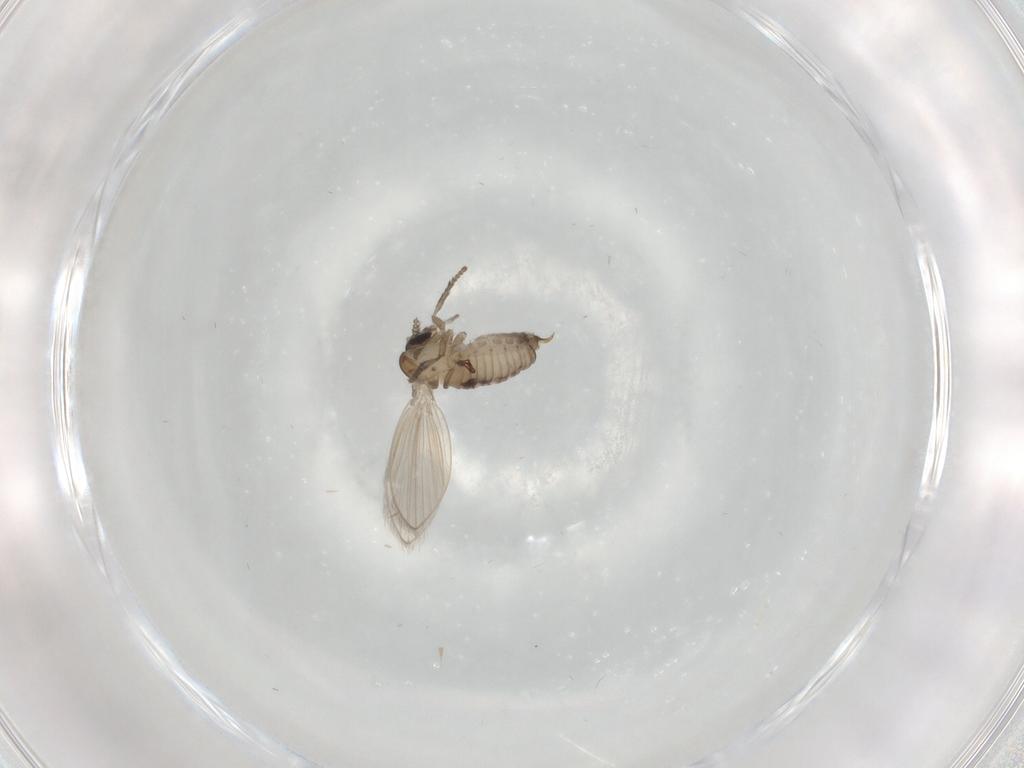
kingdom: Animalia
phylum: Arthropoda
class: Insecta
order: Diptera
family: Psychodidae
